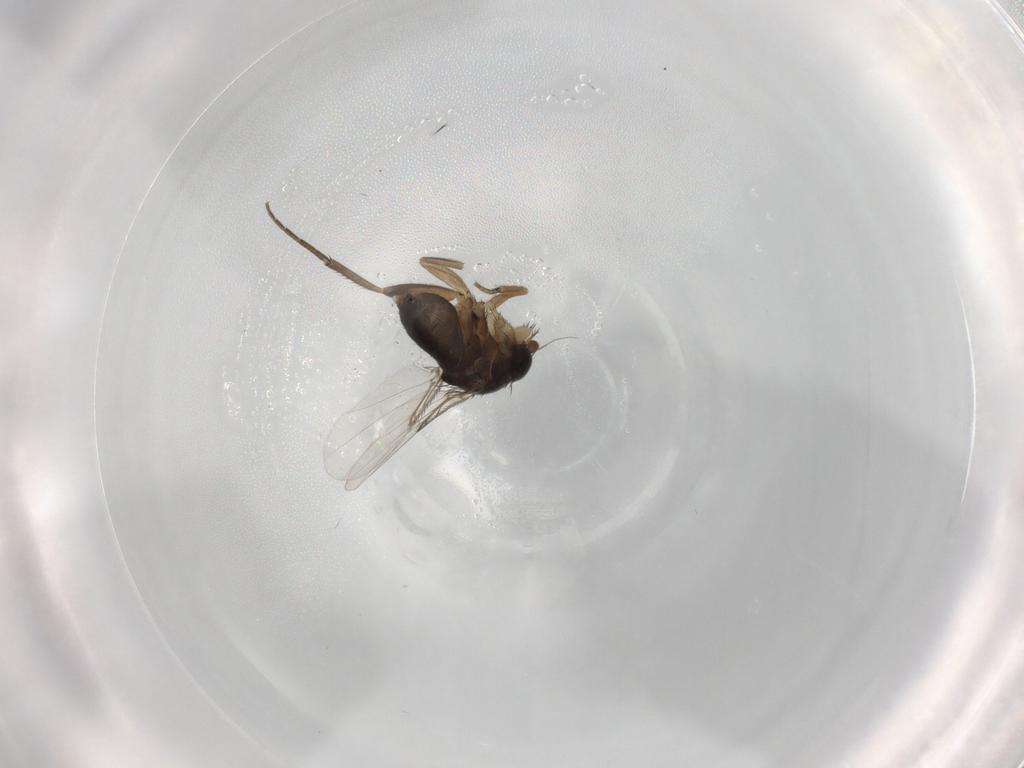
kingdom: Animalia
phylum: Arthropoda
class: Insecta
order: Diptera
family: Phoridae
